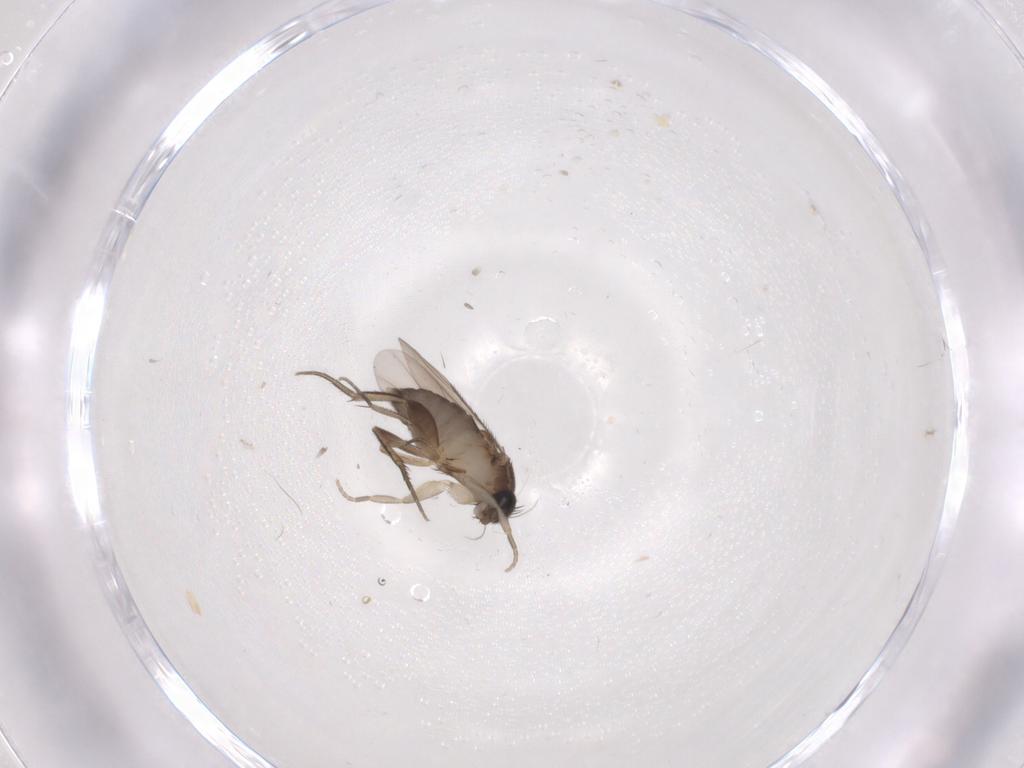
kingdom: Animalia
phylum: Arthropoda
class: Insecta
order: Diptera
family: Phoridae
